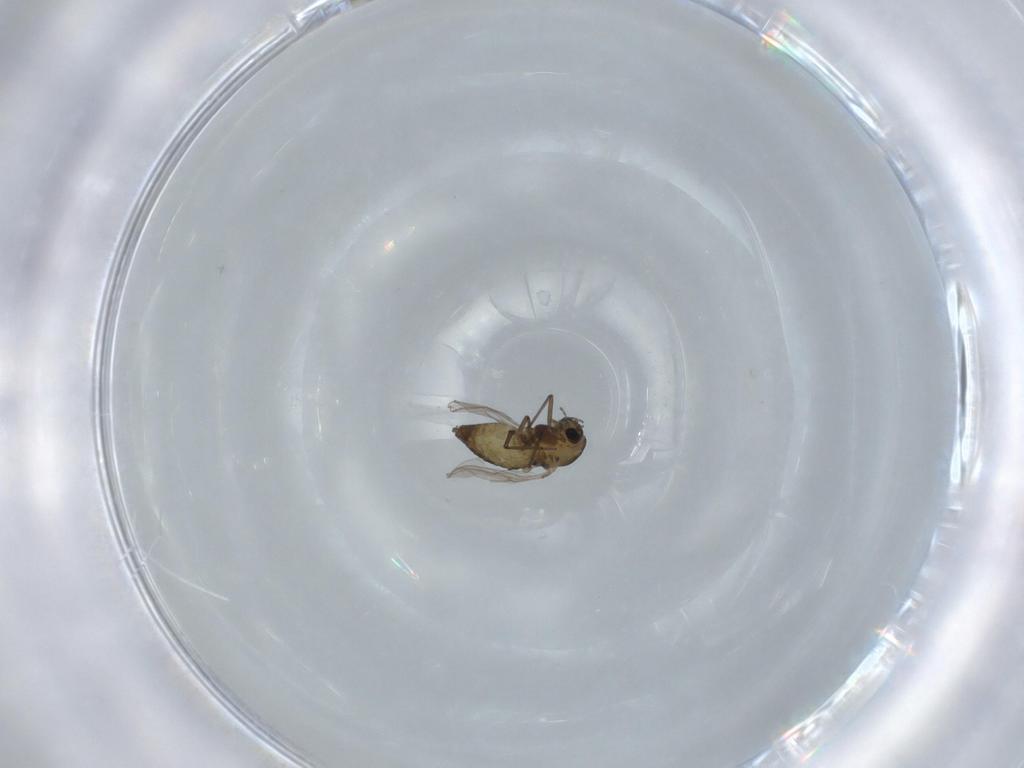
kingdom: Animalia
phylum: Arthropoda
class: Insecta
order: Diptera
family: Chironomidae
